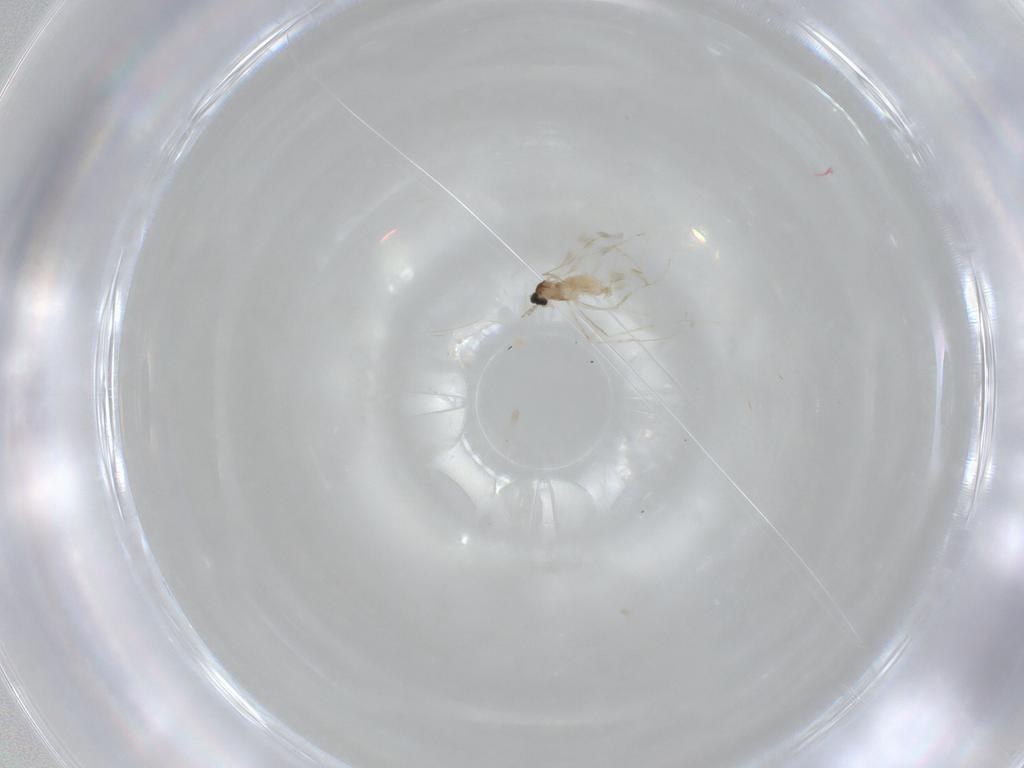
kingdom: Animalia
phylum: Arthropoda
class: Insecta
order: Diptera
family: Cecidomyiidae
